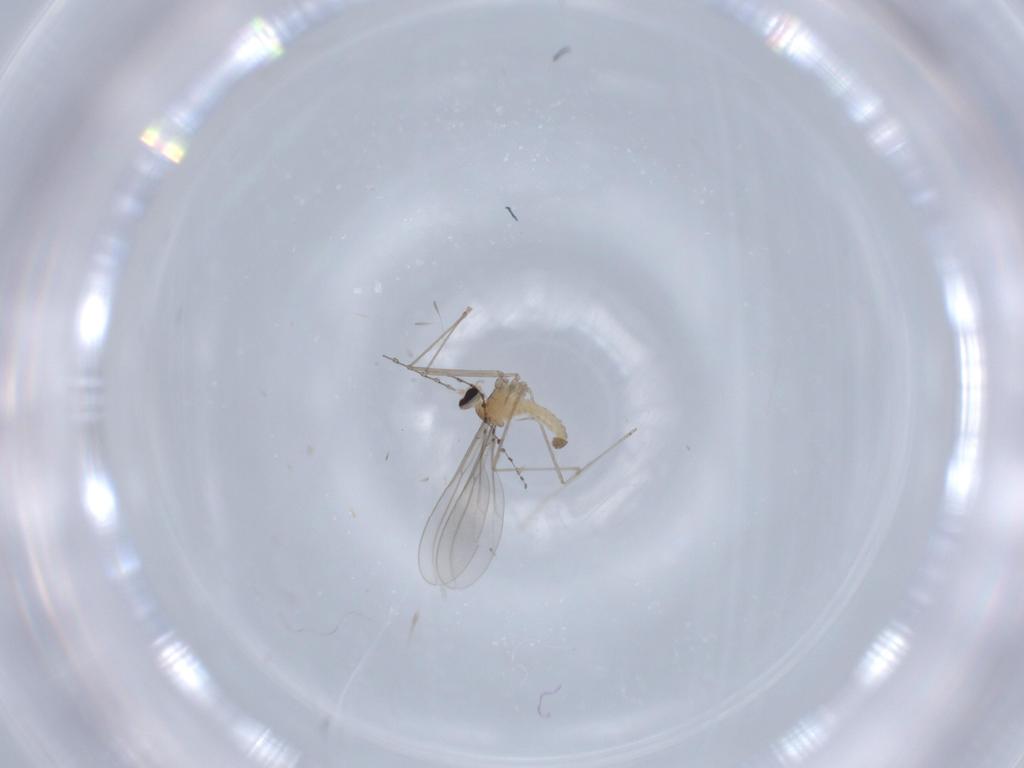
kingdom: Animalia
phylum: Arthropoda
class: Insecta
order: Diptera
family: Cecidomyiidae
